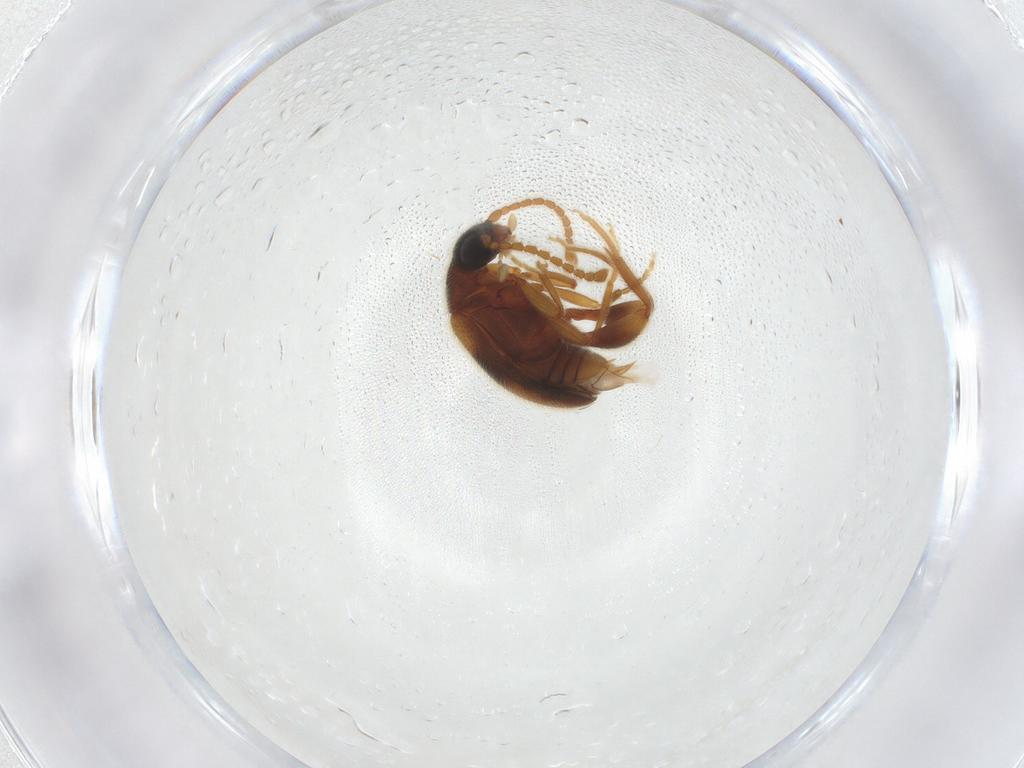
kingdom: Animalia
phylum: Arthropoda
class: Insecta
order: Coleoptera
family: Aderidae
